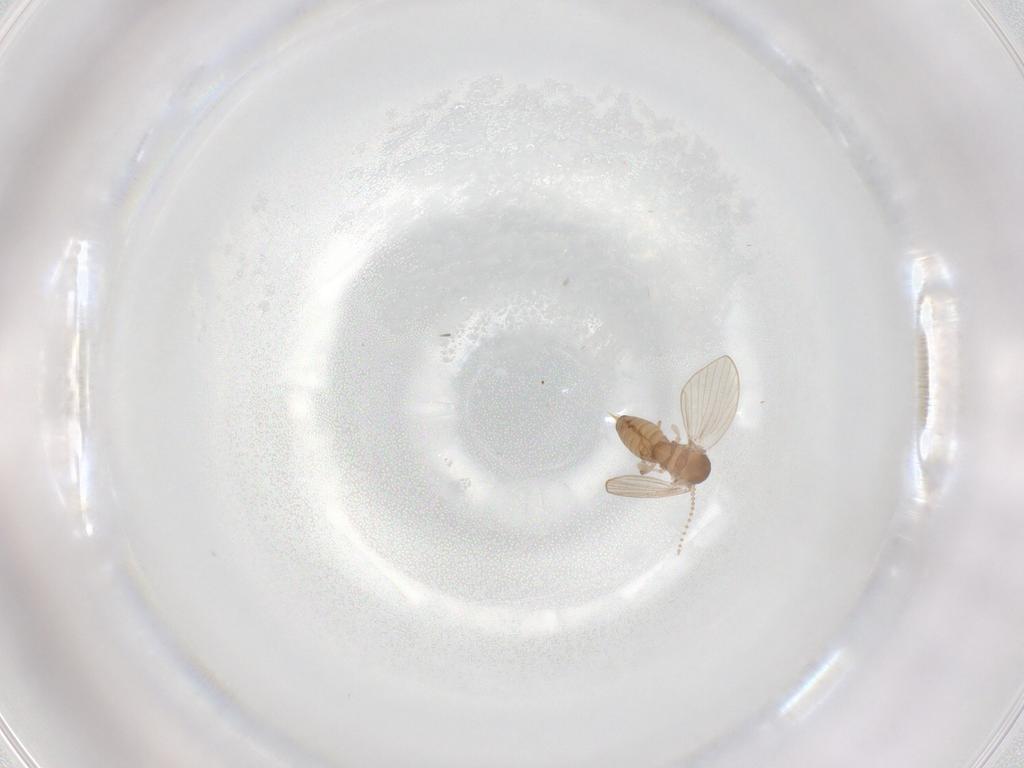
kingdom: Animalia
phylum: Arthropoda
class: Insecta
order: Diptera
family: Psychodidae
